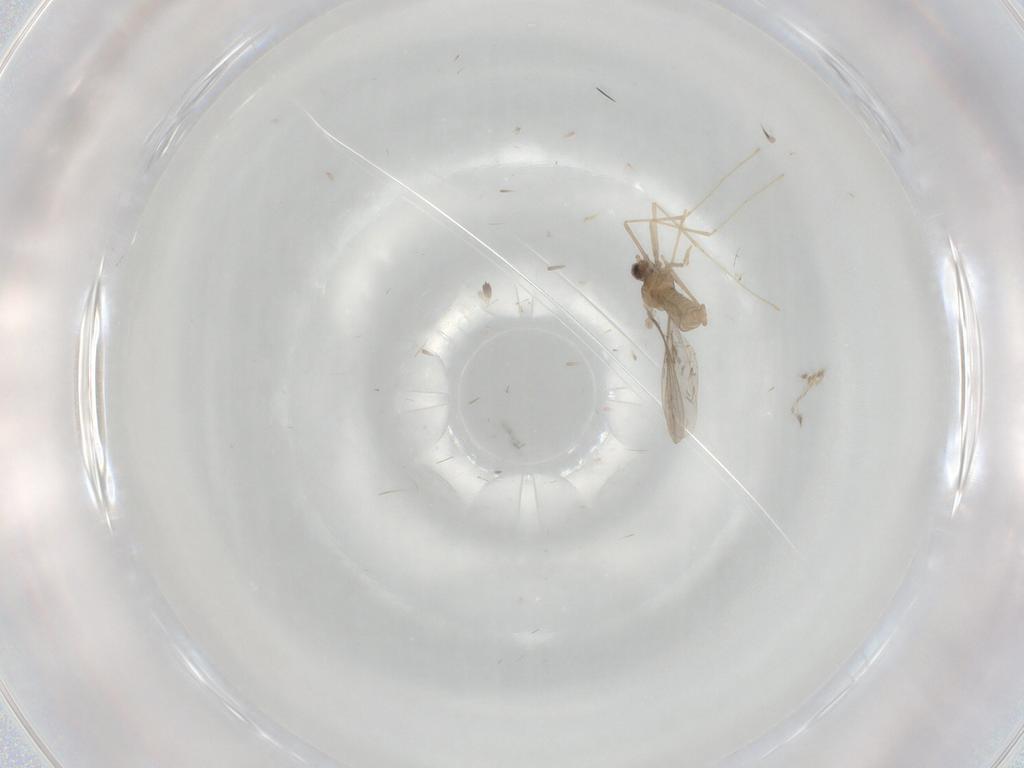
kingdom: Animalia
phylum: Arthropoda
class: Insecta
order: Diptera
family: Cecidomyiidae
